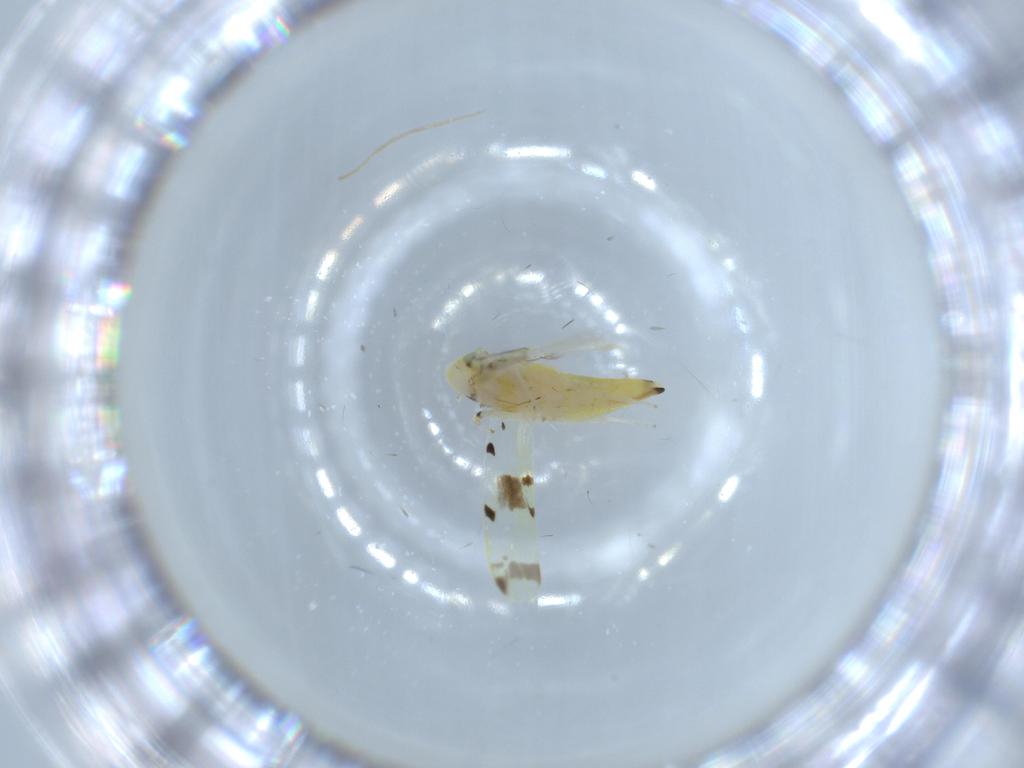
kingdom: Animalia
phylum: Arthropoda
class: Insecta
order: Hemiptera
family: Cicadellidae
